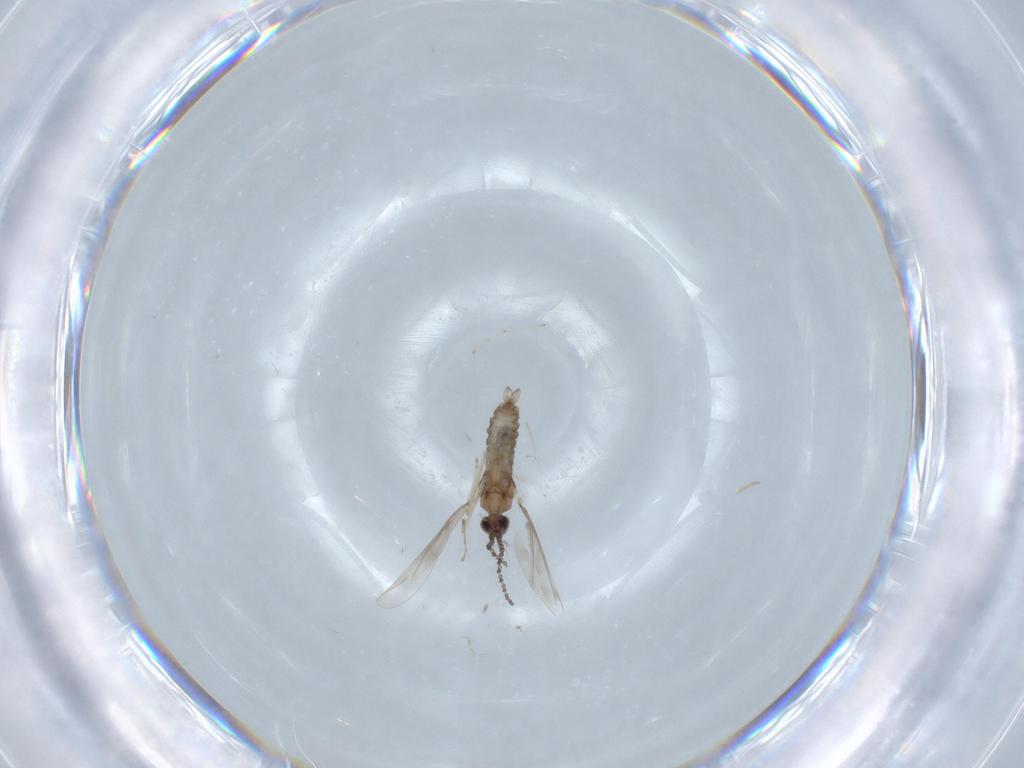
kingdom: Animalia
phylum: Arthropoda
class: Insecta
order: Diptera
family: Cecidomyiidae
